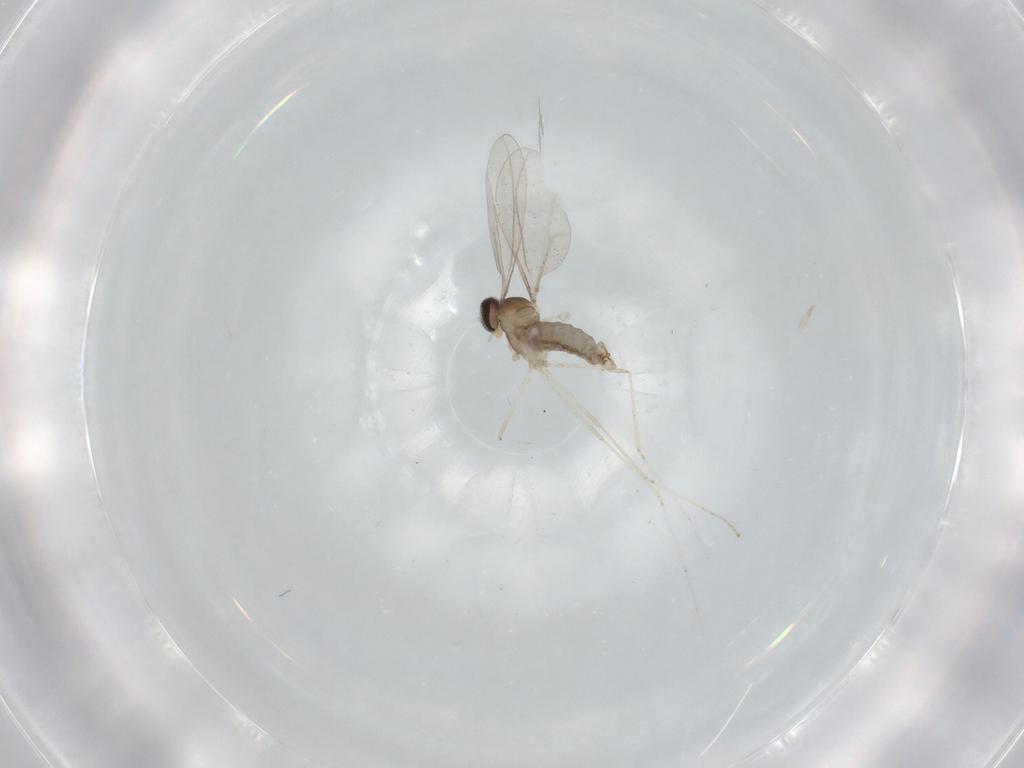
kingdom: Animalia
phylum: Arthropoda
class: Insecta
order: Diptera
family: Cecidomyiidae
